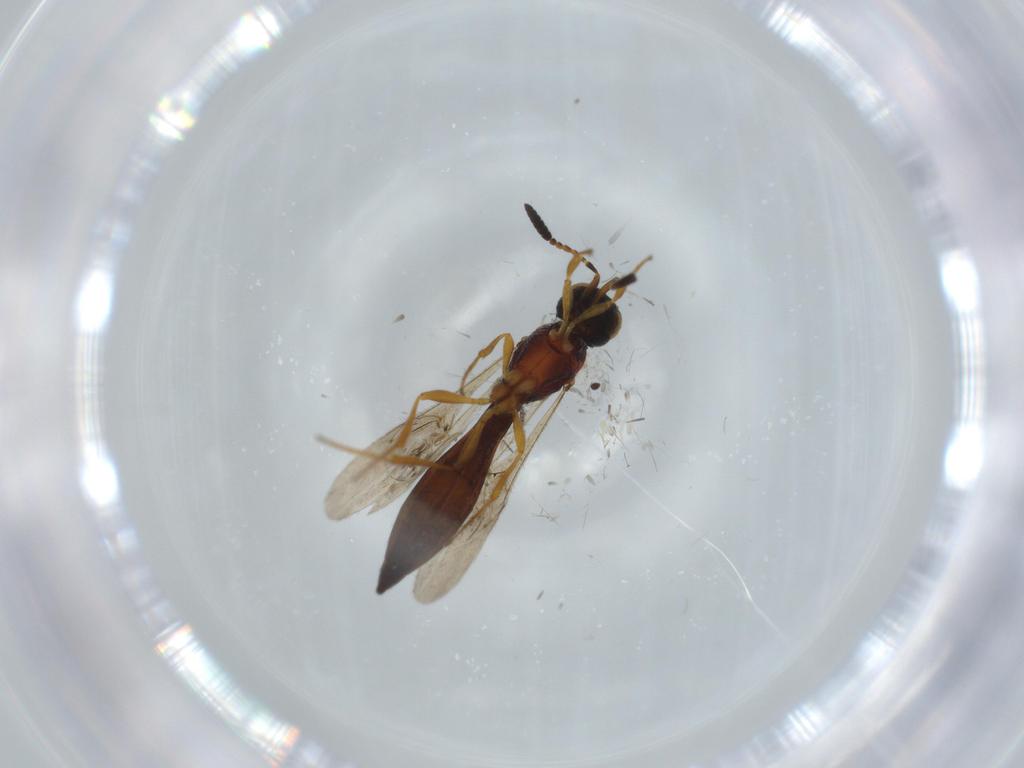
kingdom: Animalia
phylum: Arthropoda
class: Insecta
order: Hymenoptera
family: Scelionidae
